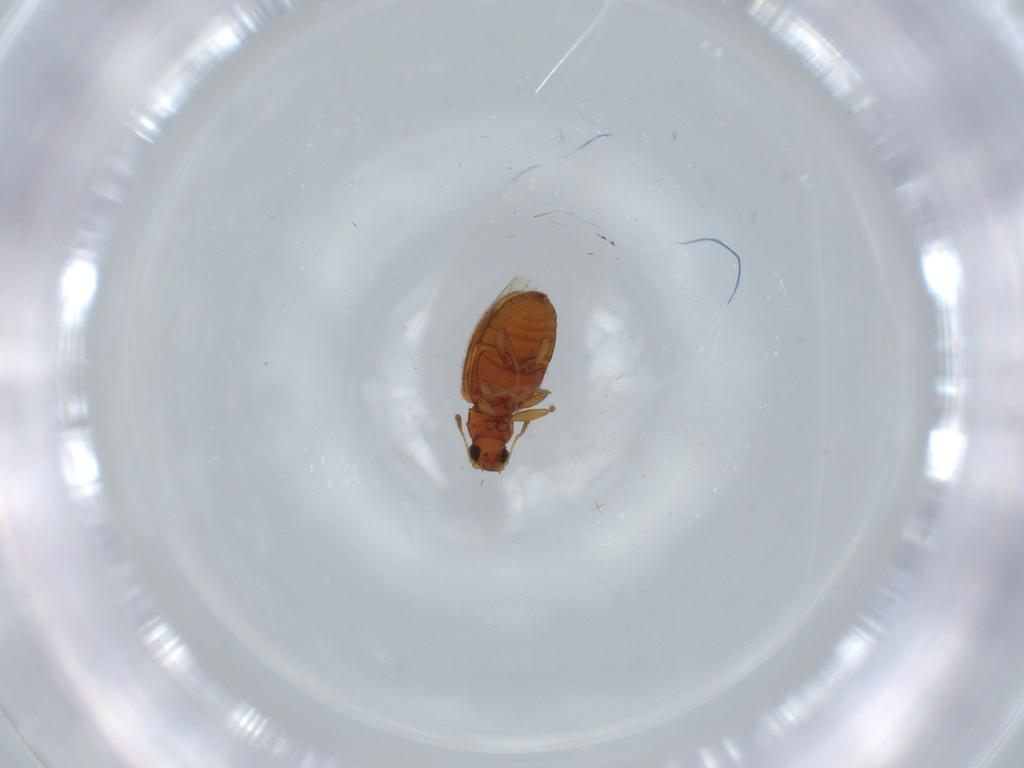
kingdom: Animalia
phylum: Arthropoda
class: Insecta
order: Coleoptera
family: Latridiidae
